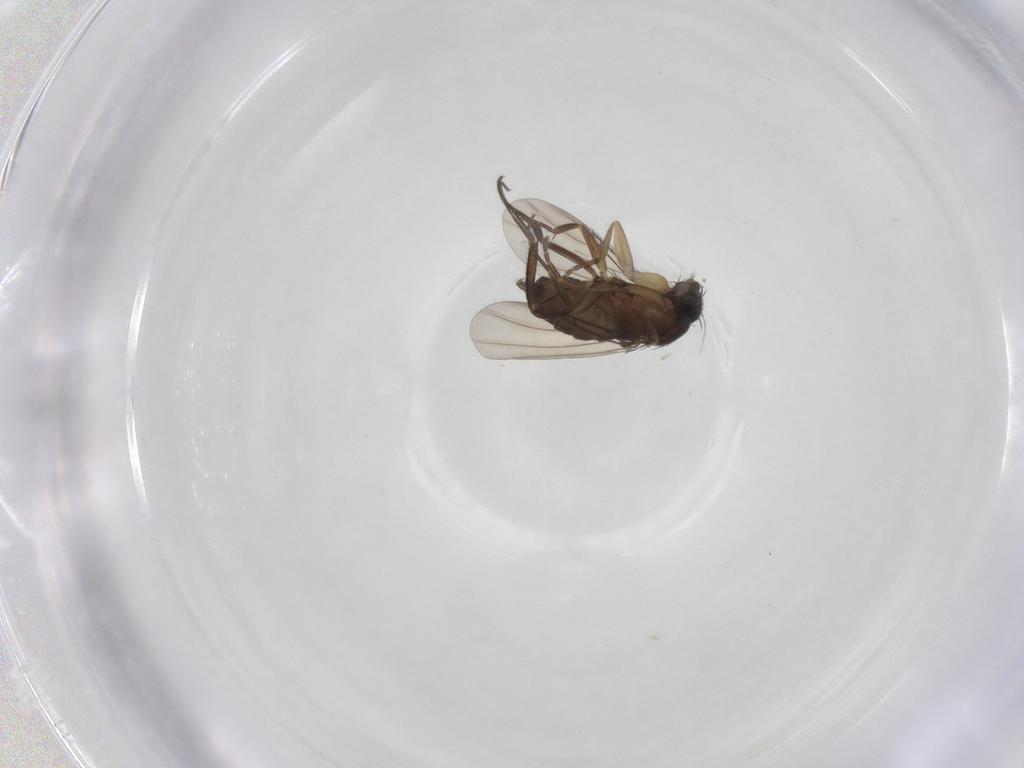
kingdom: Animalia
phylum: Arthropoda
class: Insecta
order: Diptera
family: Phoridae
